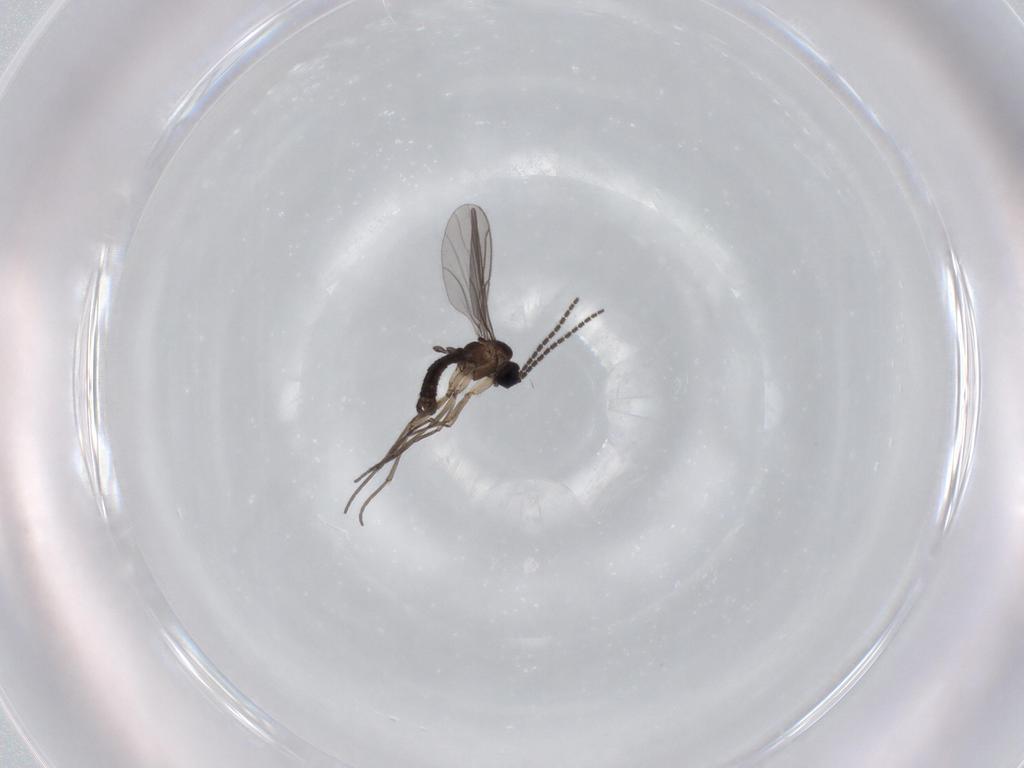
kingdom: Animalia
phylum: Arthropoda
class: Insecta
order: Diptera
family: Sciaridae
